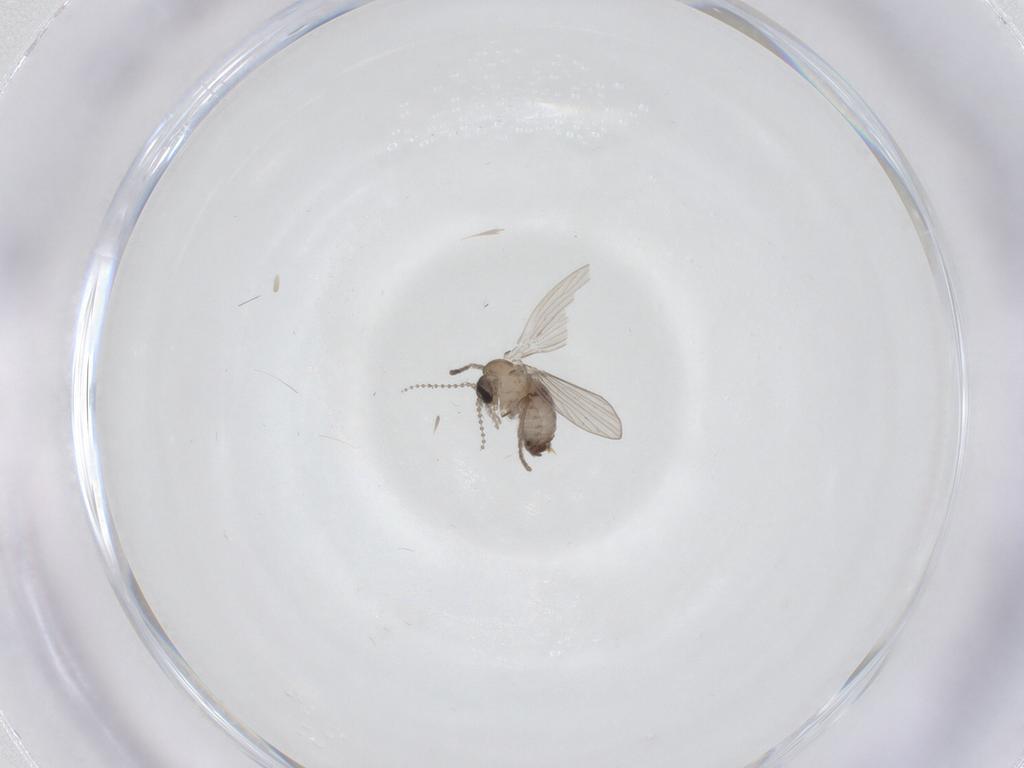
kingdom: Animalia
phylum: Arthropoda
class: Insecta
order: Diptera
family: Psychodidae
